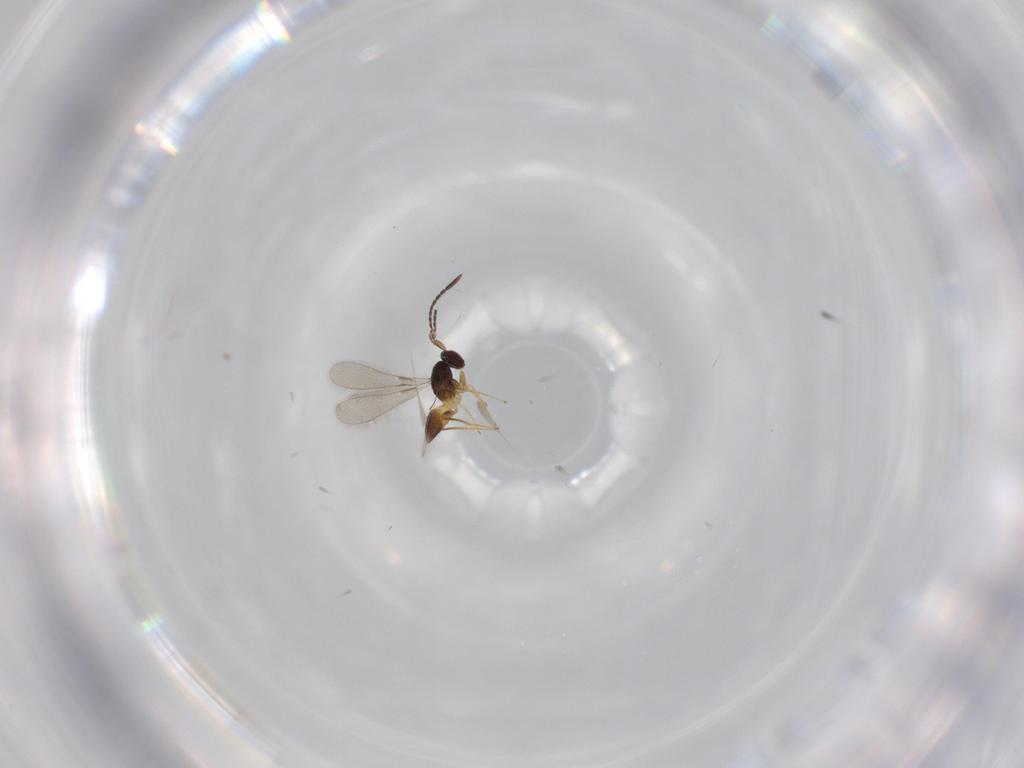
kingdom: Animalia
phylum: Arthropoda
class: Insecta
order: Hymenoptera
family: Mymaridae
